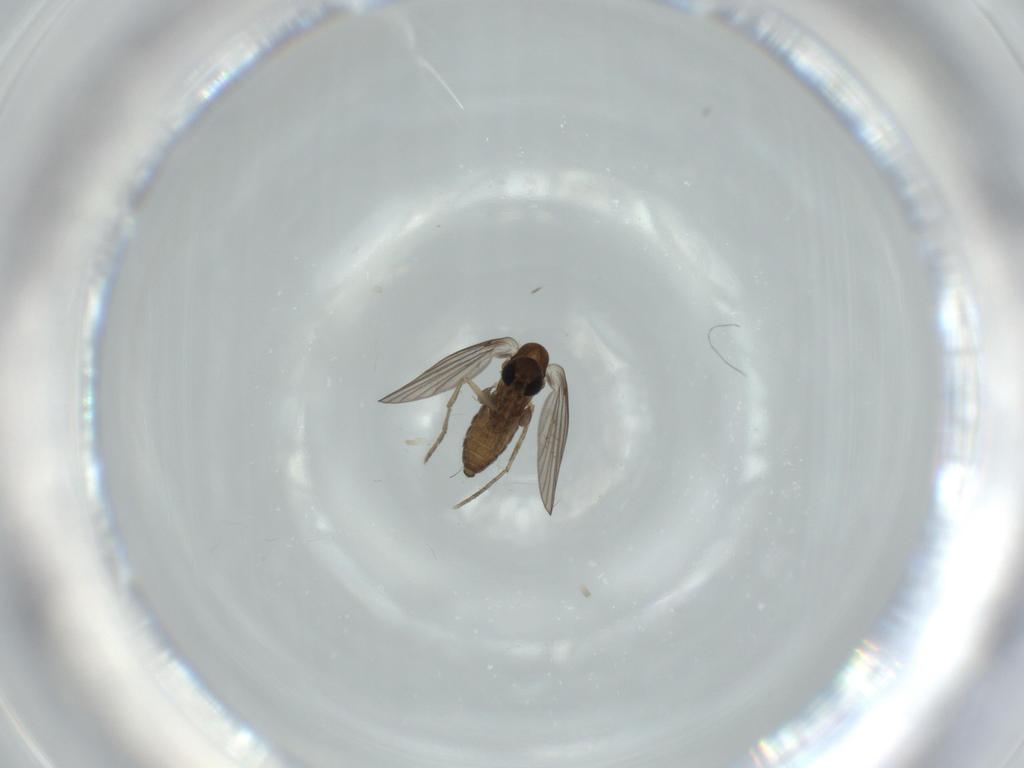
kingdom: Animalia
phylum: Arthropoda
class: Insecta
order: Diptera
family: Psychodidae
